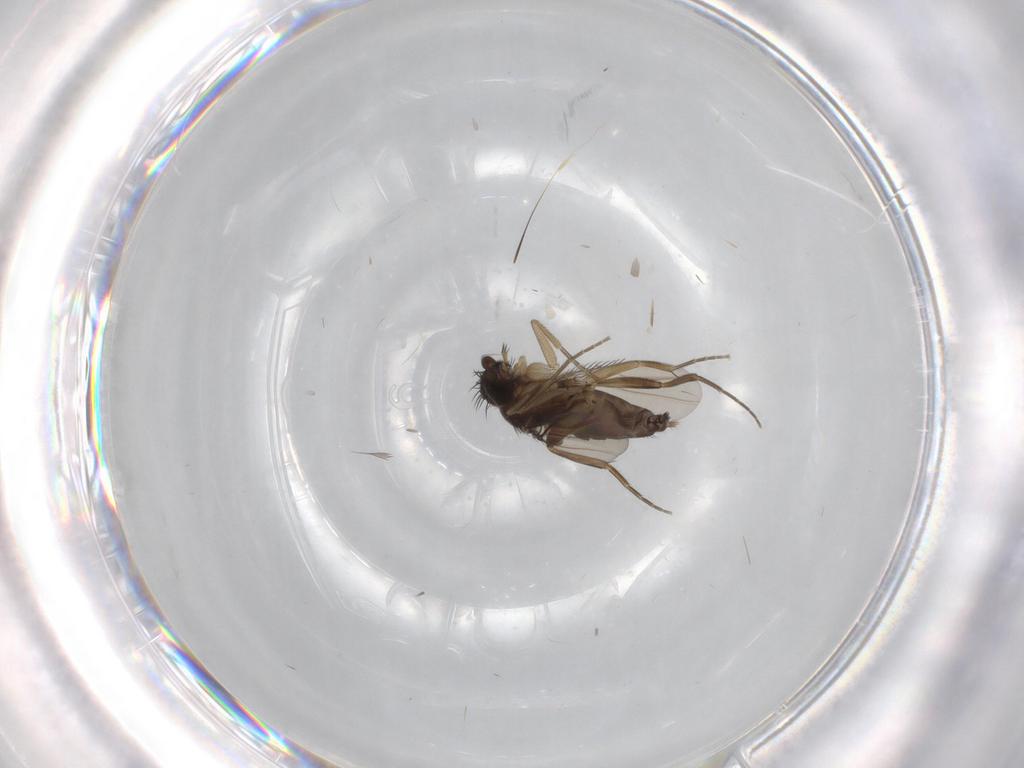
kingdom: Animalia
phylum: Arthropoda
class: Insecta
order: Diptera
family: Phoridae
